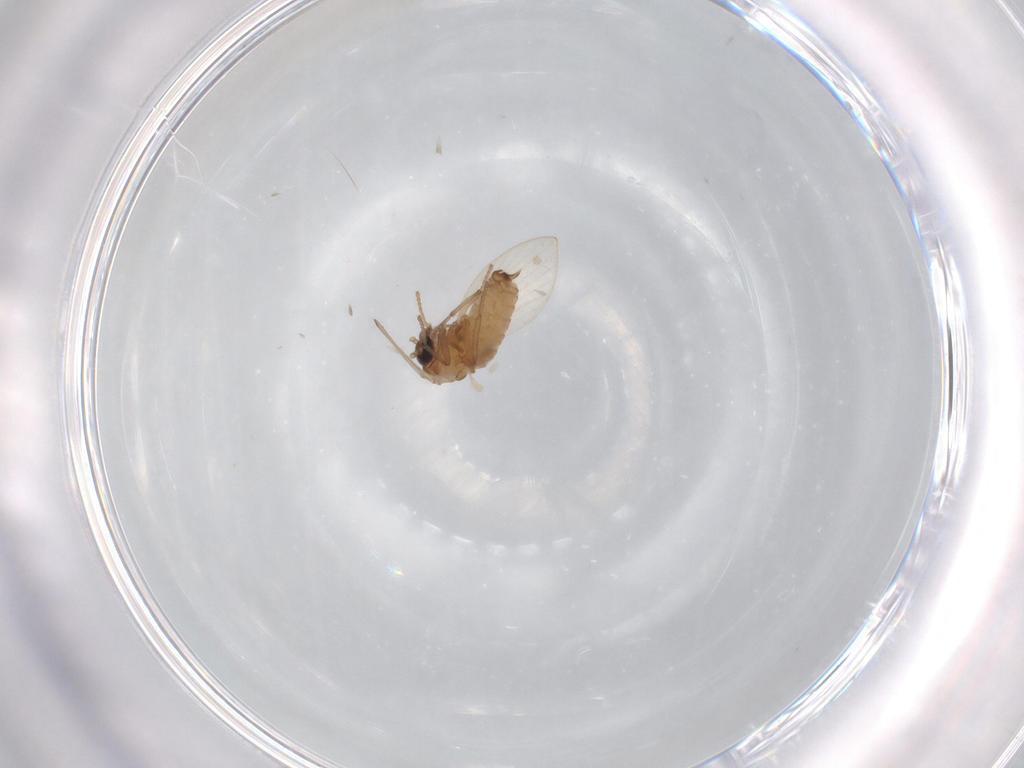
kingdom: Animalia
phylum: Arthropoda
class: Insecta
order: Diptera
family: Psychodidae
